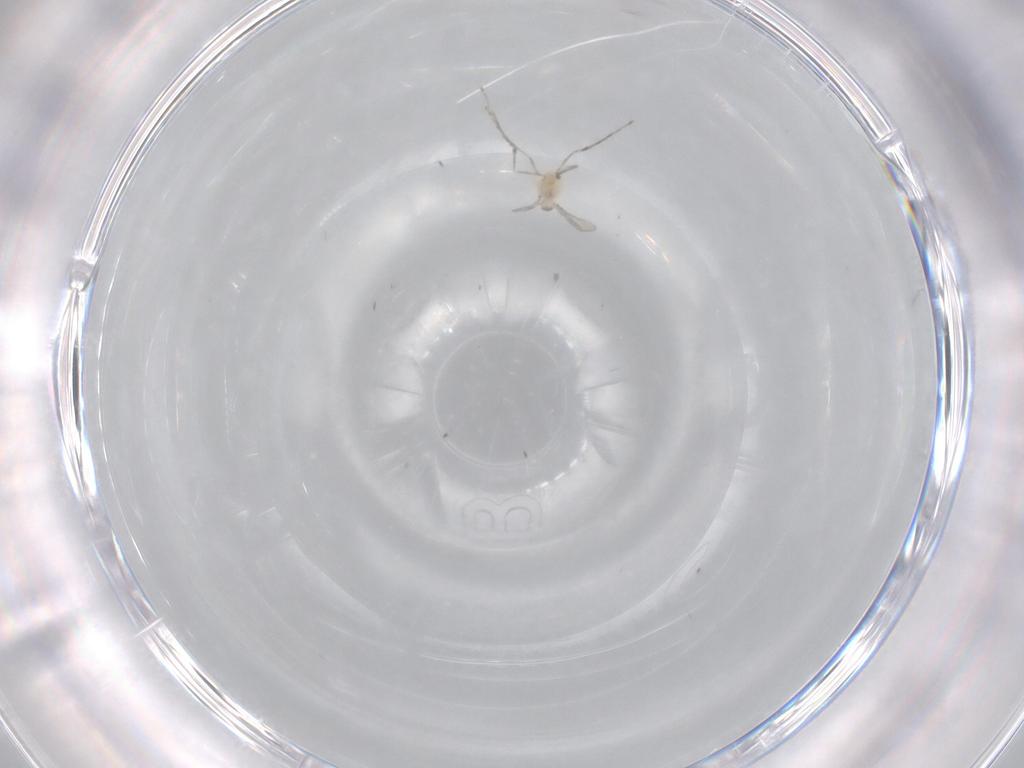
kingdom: Animalia
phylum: Arthropoda
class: Insecta
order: Diptera
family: Cecidomyiidae
